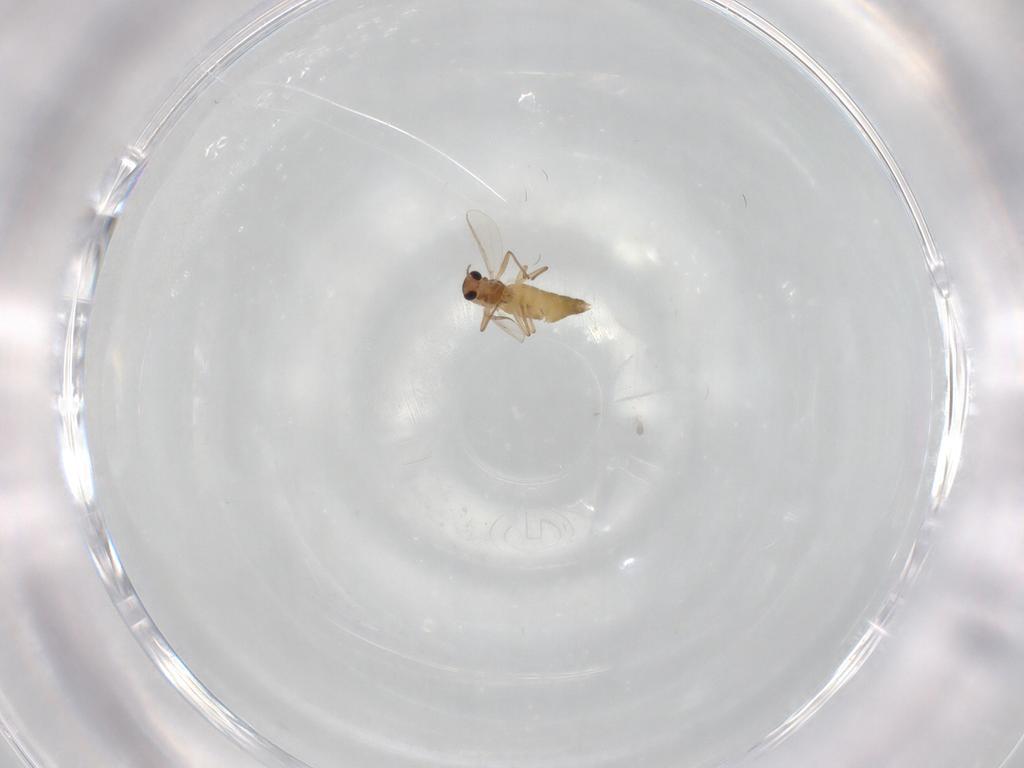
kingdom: Animalia
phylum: Arthropoda
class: Insecta
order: Diptera
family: Chironomidae
